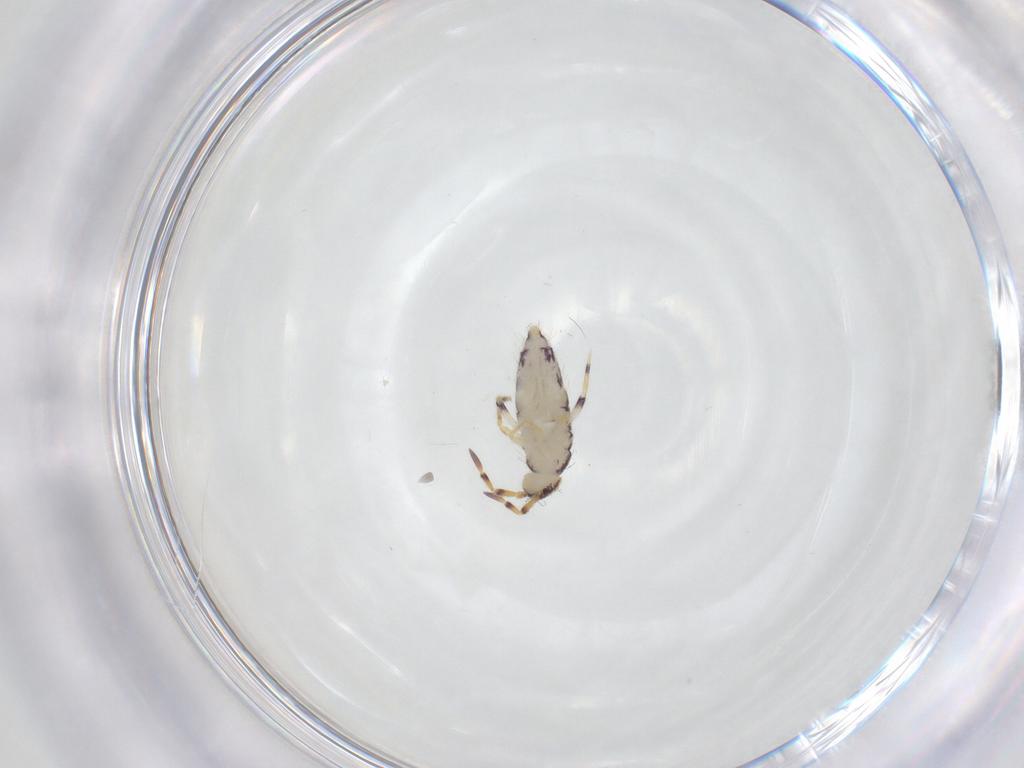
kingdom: Animalia
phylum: Arthropoda
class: Collembola
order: Entomobryomorpha
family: Isotomidae
